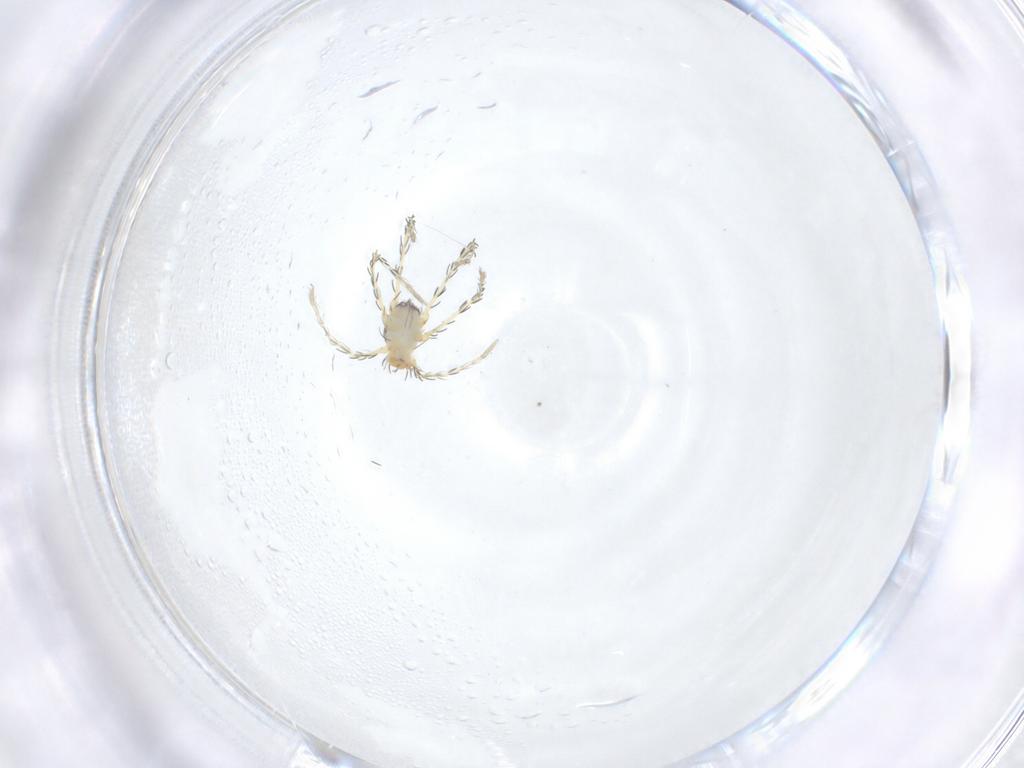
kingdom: Animalia
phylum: Arthropoda
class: Arachnida
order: Trombidiformes
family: Erythraeidae
